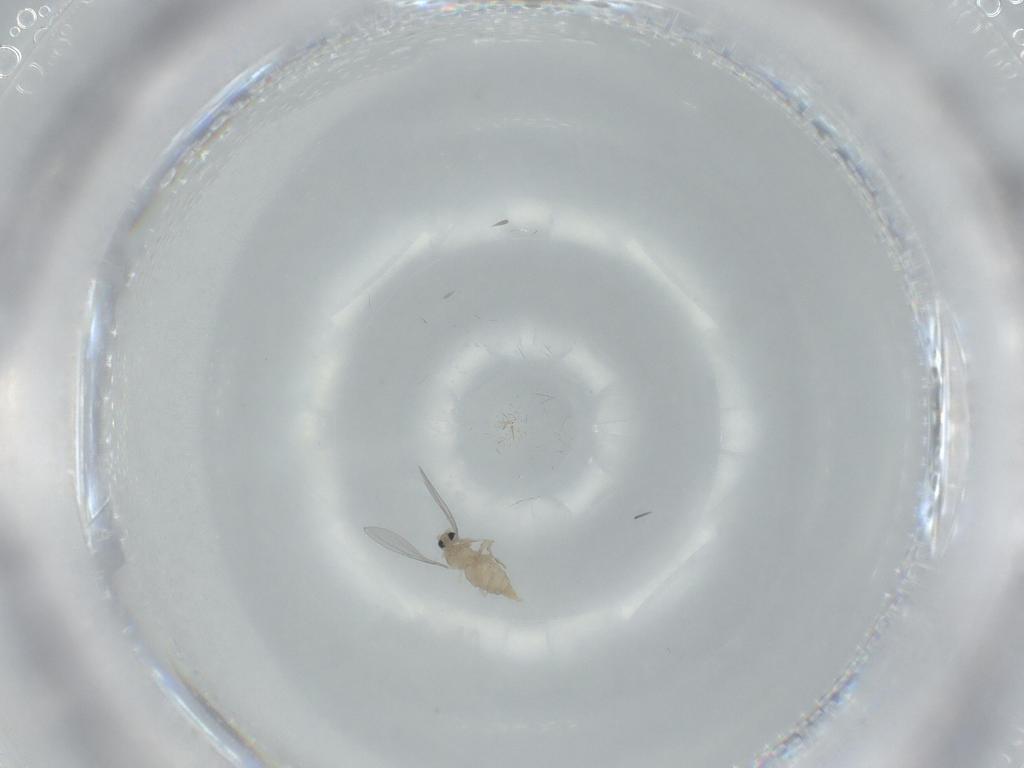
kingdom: Animalia
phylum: Arthropoda
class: Insecta
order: Diptera
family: Cecidomyiidae
